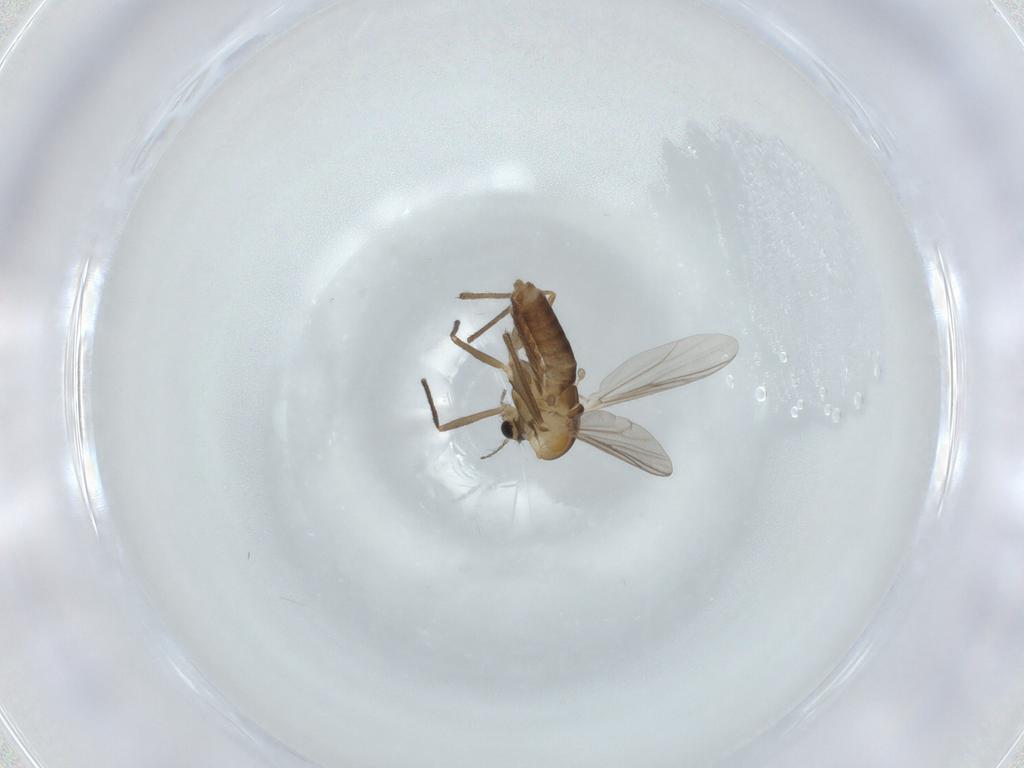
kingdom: Animalia
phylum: Arthropoda
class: Insecta
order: Diptera
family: Chironomidae
